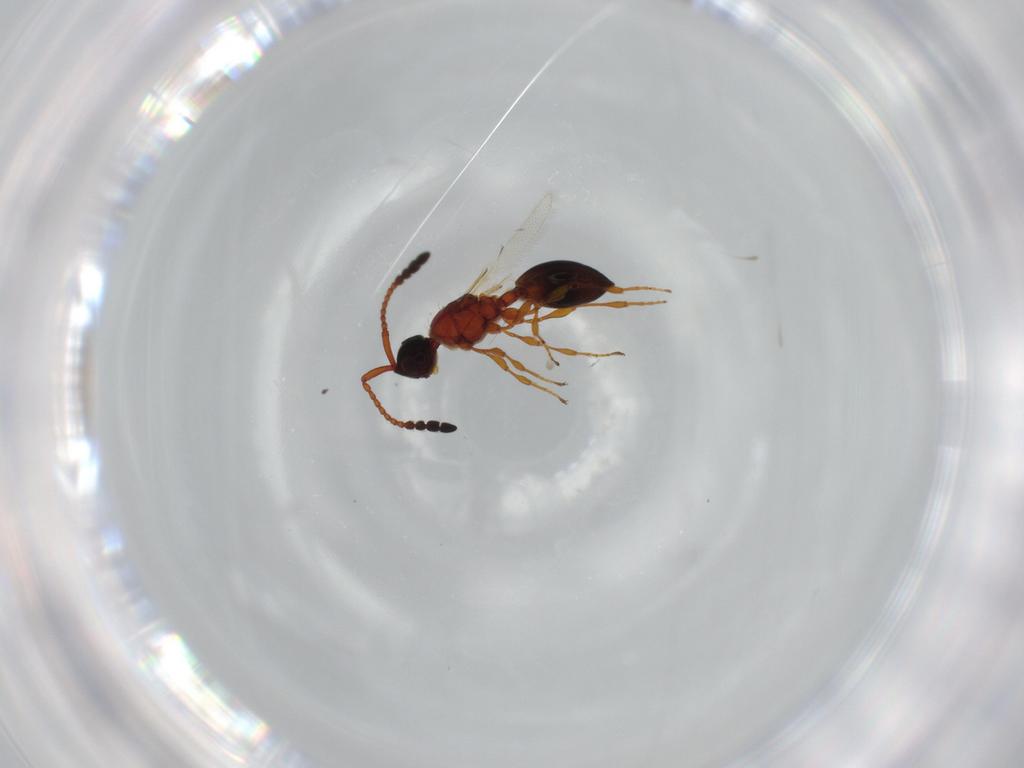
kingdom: Animalia
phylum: Arthropoda
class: Insecta
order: Hymenoptera
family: Diapriidae
